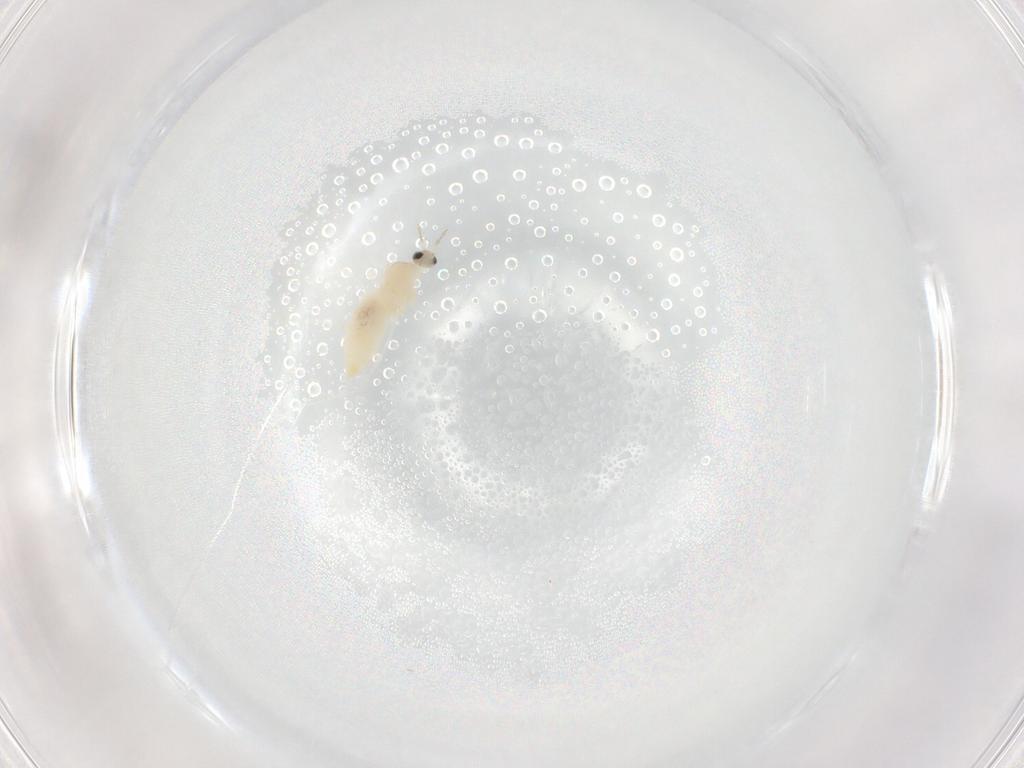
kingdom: Animalia
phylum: Arthropoda
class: Insecta
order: Diptera
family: Cecidomyiidae
